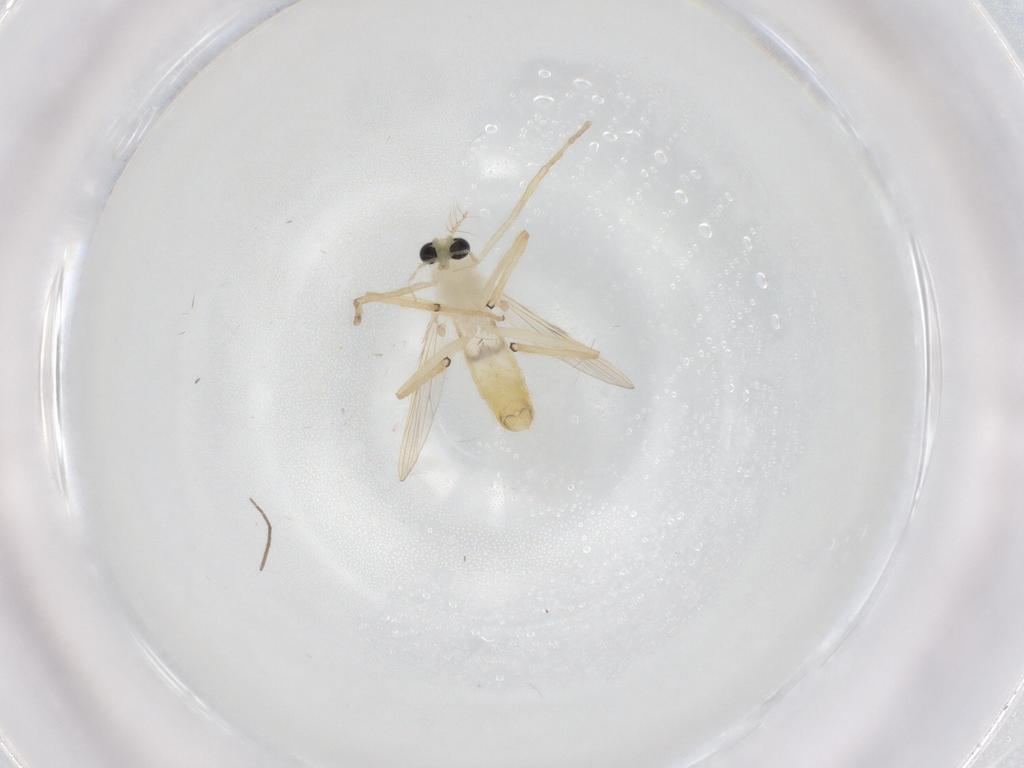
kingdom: Animalia
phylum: Arthropoda
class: Insecta
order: Diptera
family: Chironomidae
